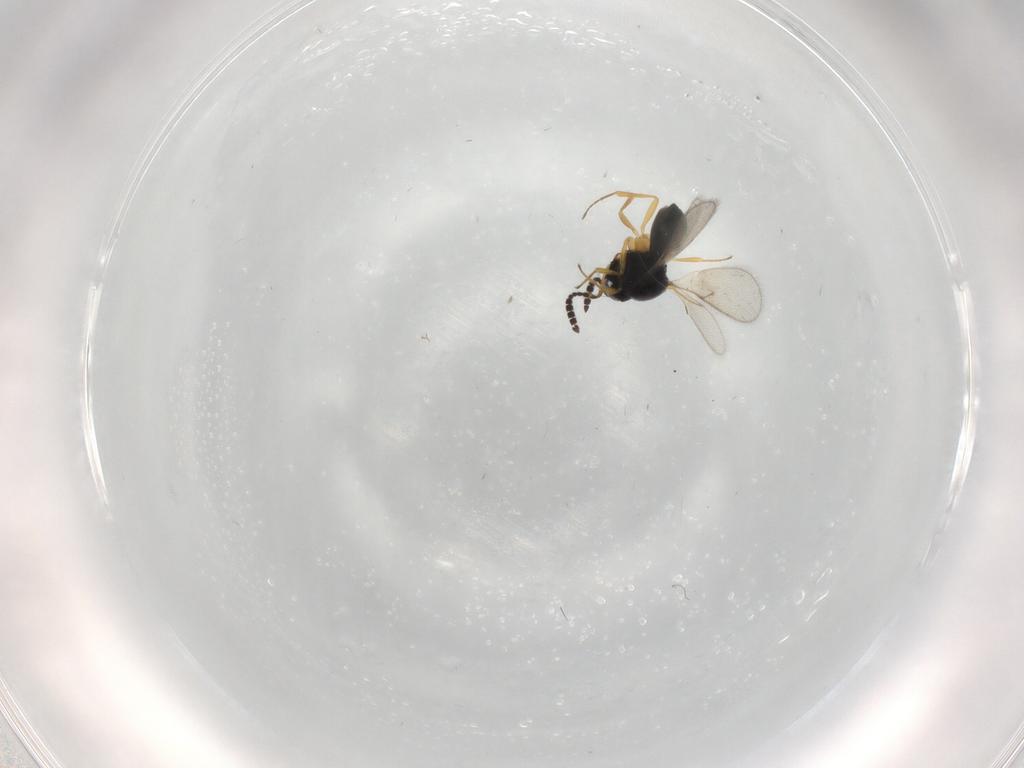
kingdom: Animalia
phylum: Arthropoda
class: Insecta
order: Hymenoptera
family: Scelionidae
